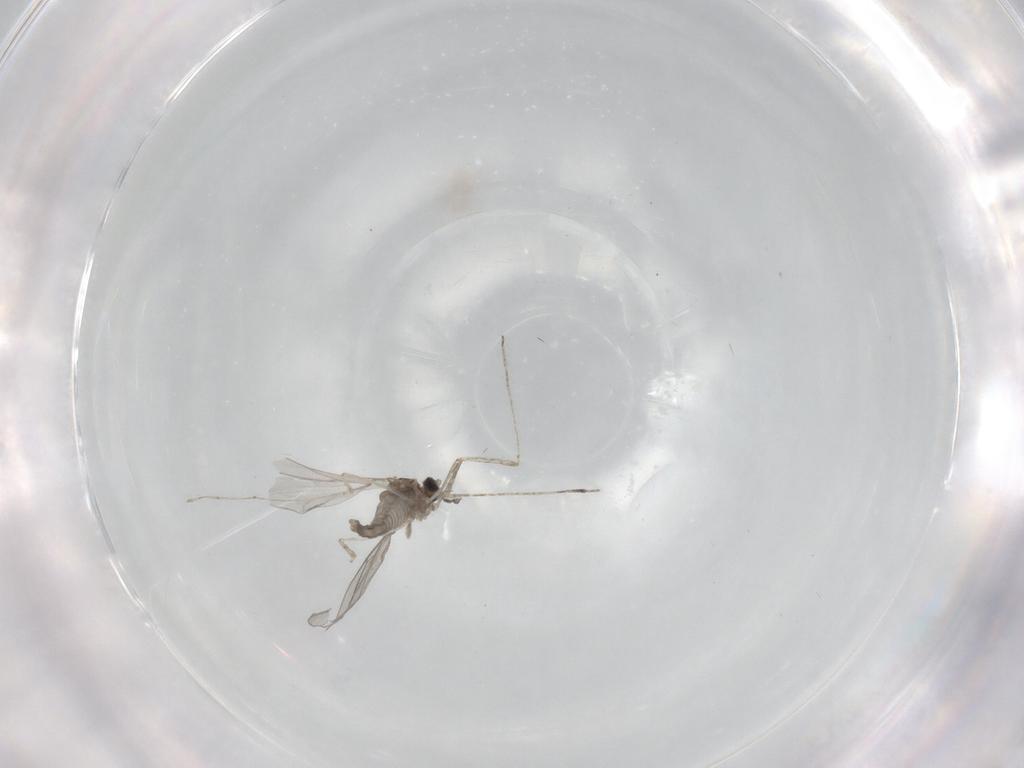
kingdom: Animalia
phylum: Arthropoda
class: Insecta
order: Diptera
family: Cecidomyiidae
